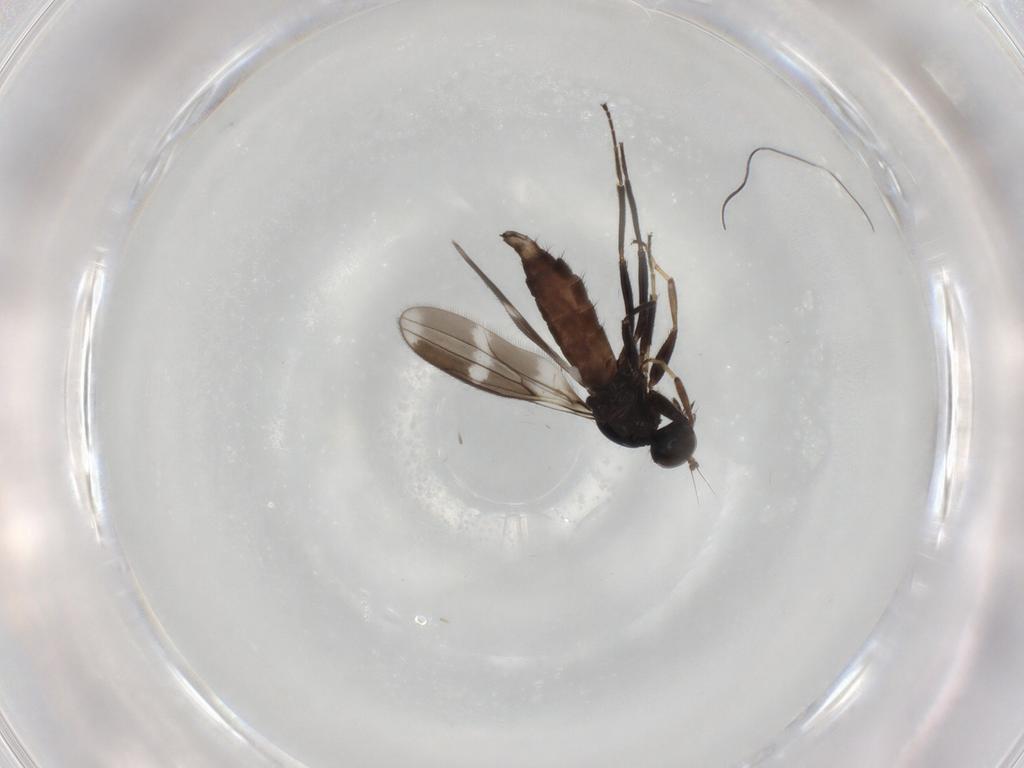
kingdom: Animalia
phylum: Arthropoda
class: Insecta
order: Diptera
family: Hybotidae
